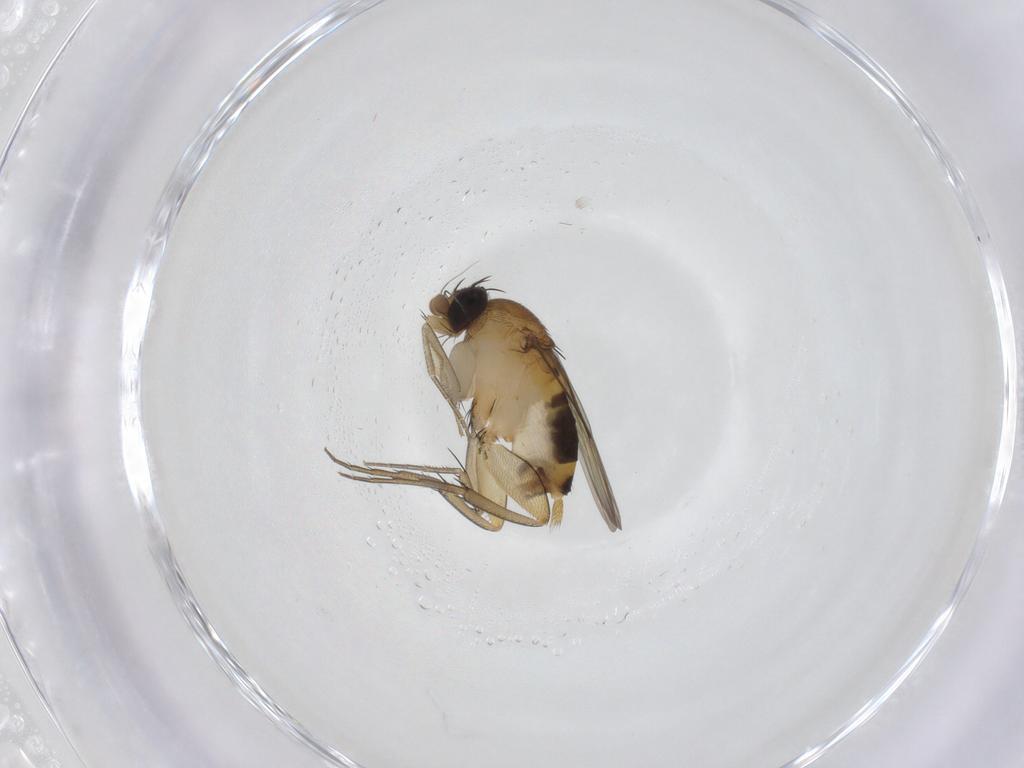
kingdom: Animalia
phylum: Arthropoda
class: Insecta
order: Diptera
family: Phoridae
